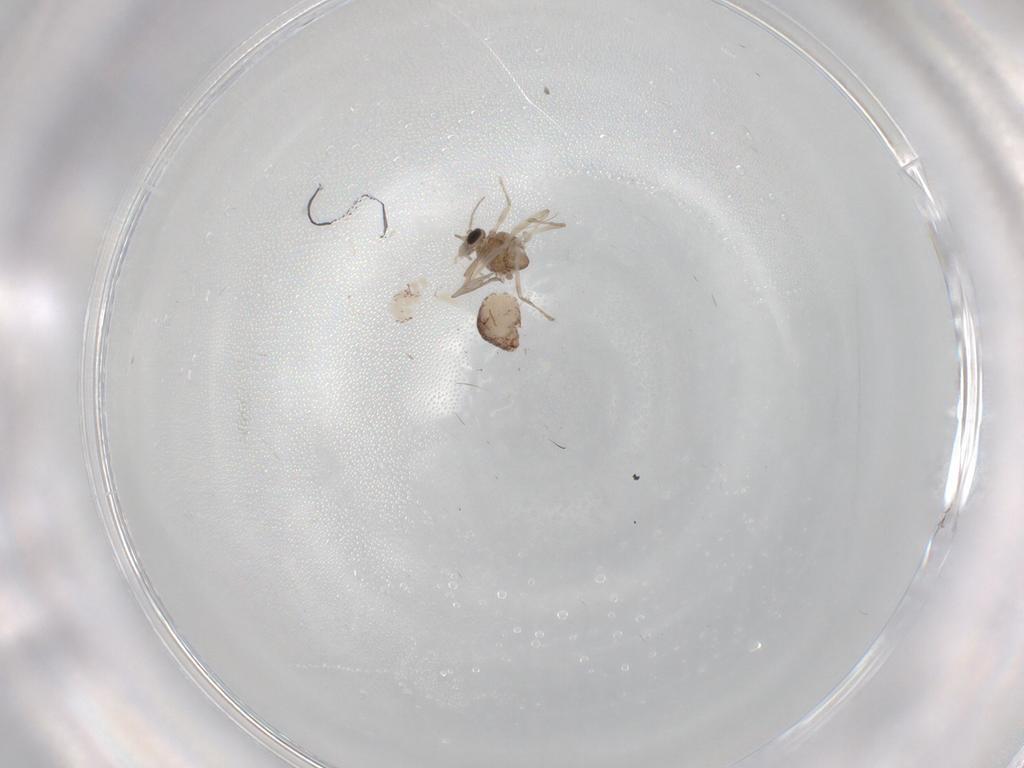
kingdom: Animalia
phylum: Arthropoda
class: Insecta
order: Diptera
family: Chironomidae
